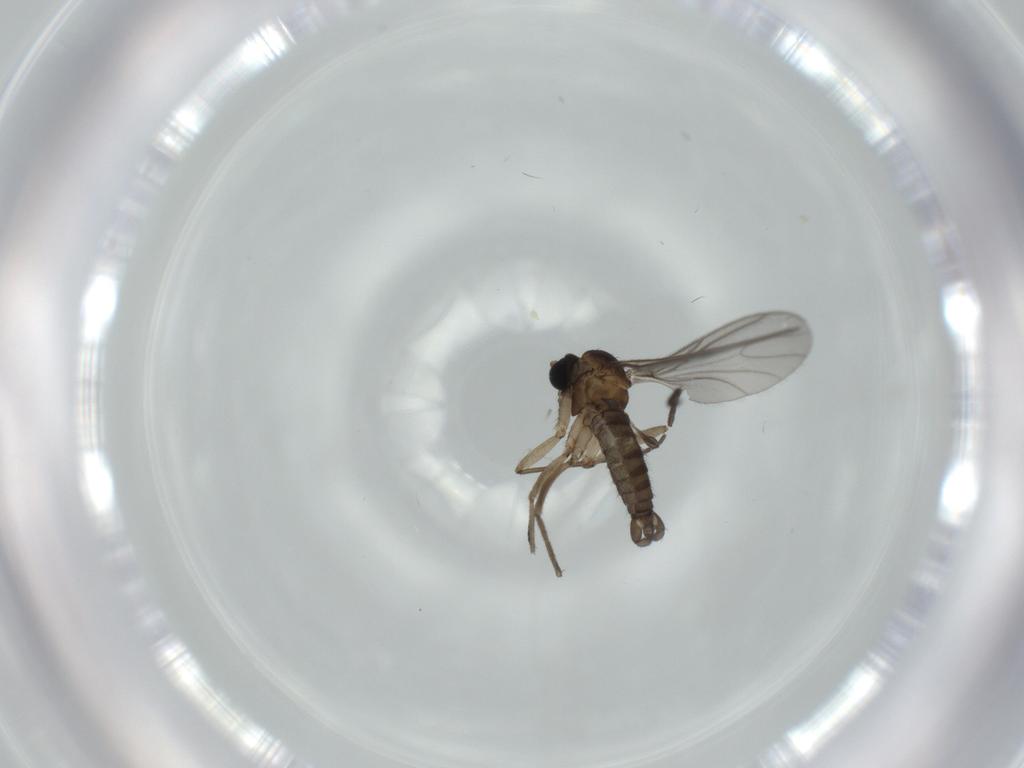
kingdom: Animalia
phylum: Arthropoda
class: Insecta
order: Diptera
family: Sciaridae
